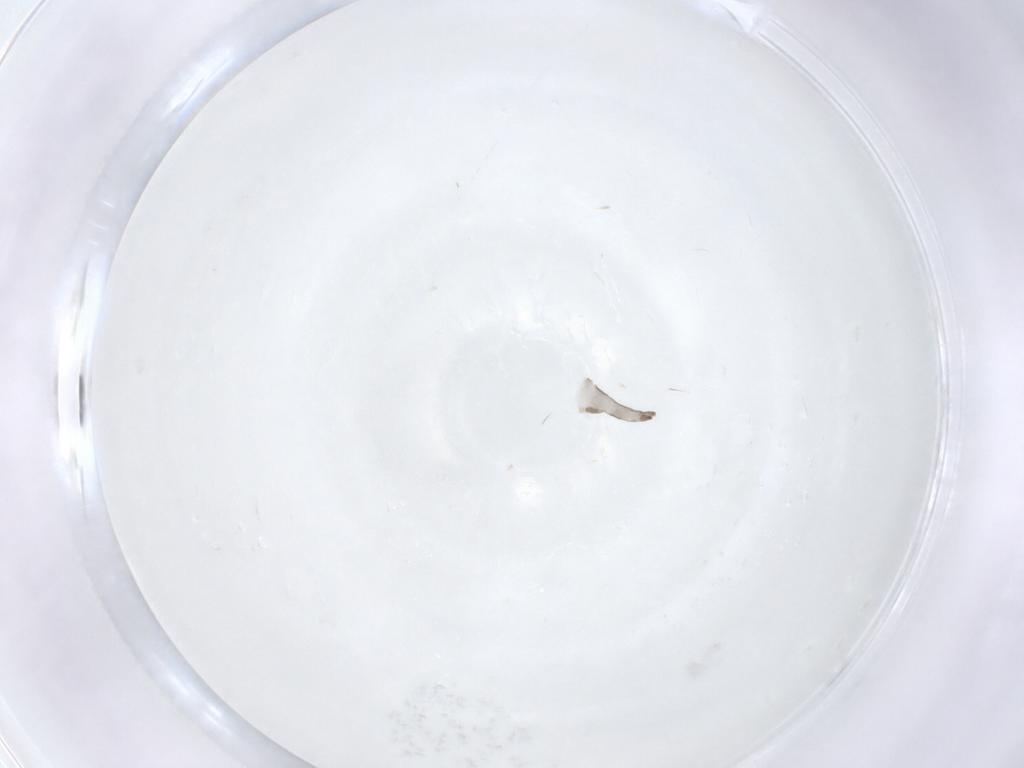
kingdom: Animalia
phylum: Arthropoda
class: Insecta
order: Diptera
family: Sciaridae
